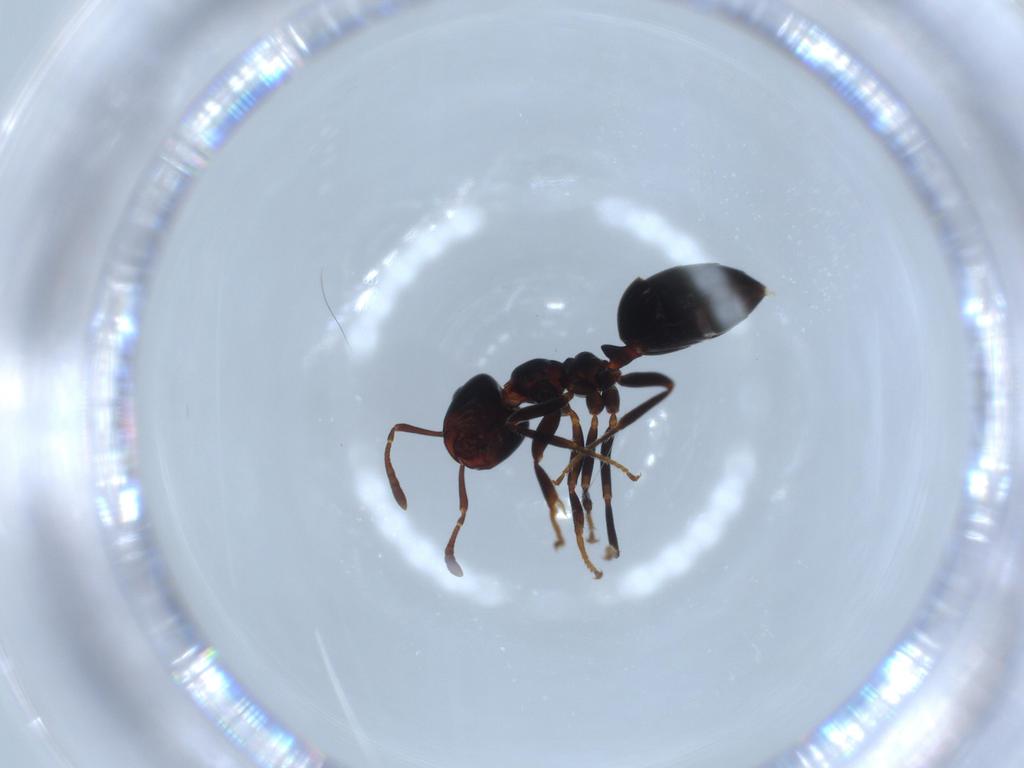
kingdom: Animalia
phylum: Arthropoda
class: Insecta
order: Hymenoptera
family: Formicidae
